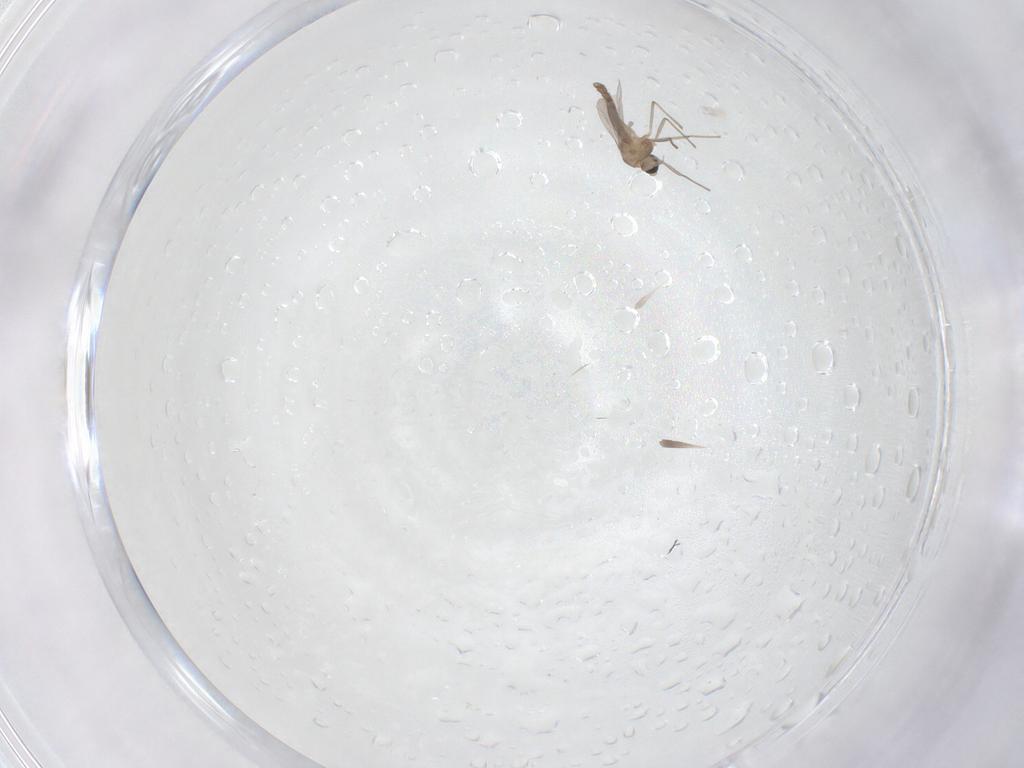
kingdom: Animalia
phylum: Arthropoda
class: Insecta
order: Diptera
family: Chironomidae
